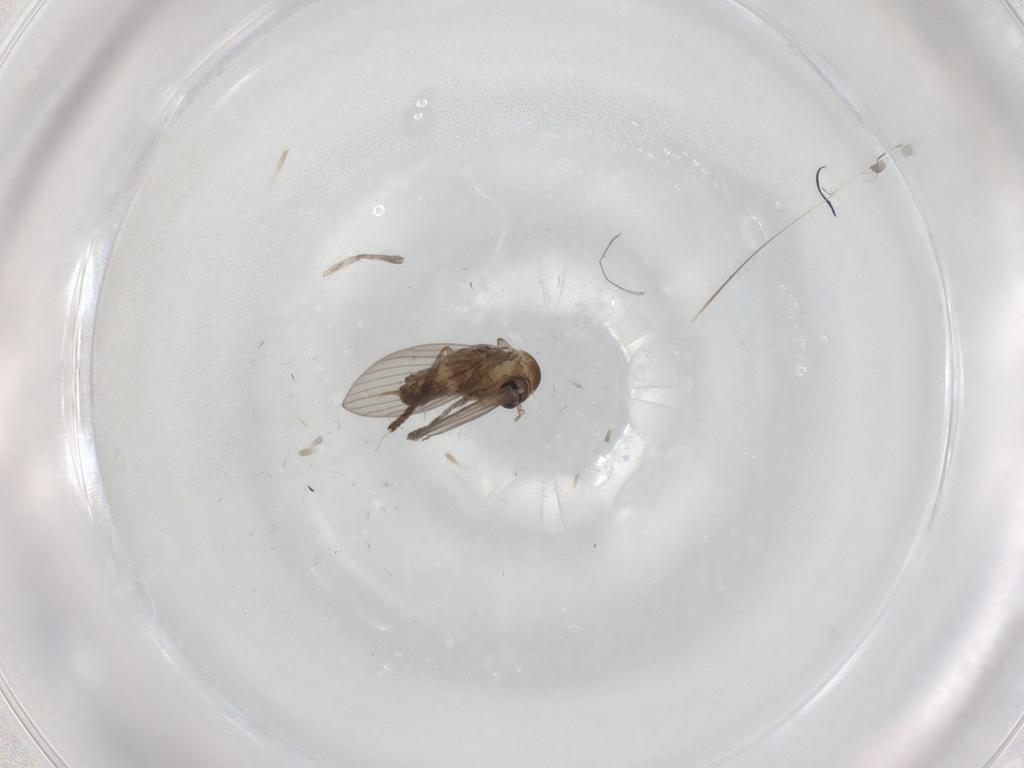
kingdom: Animalia
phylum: Arthropoda
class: Insecta
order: Diptera
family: Psychodidae
